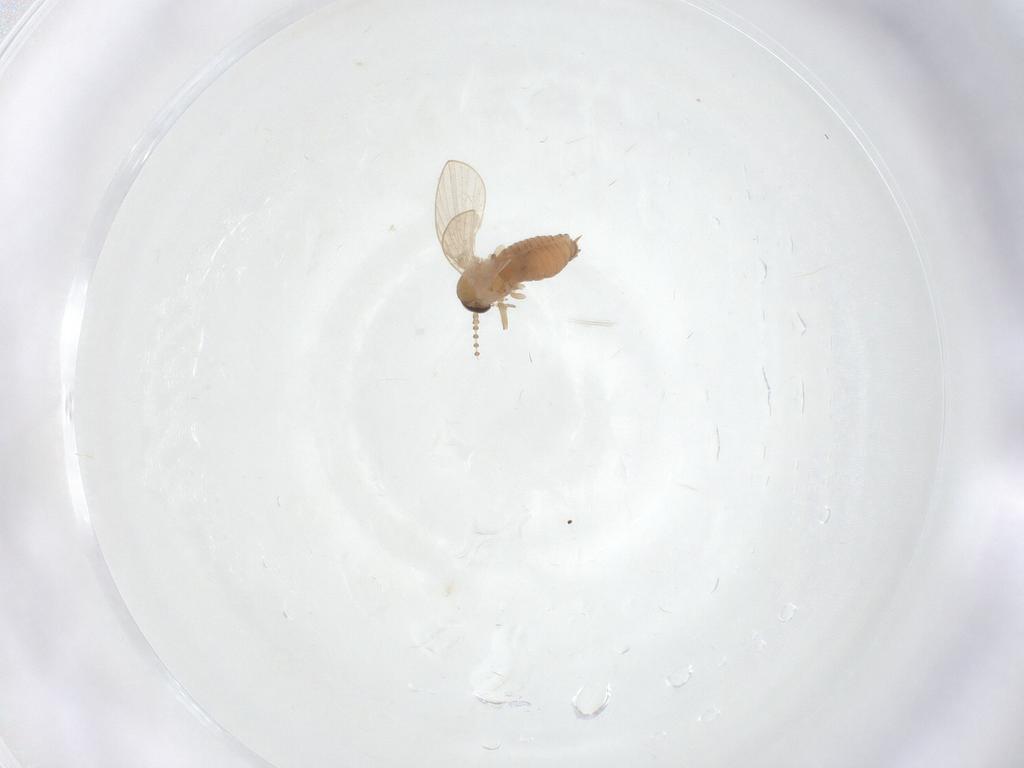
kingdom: Animalia
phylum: Arthropoda
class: Insecta
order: Diptera
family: Psychodidae
